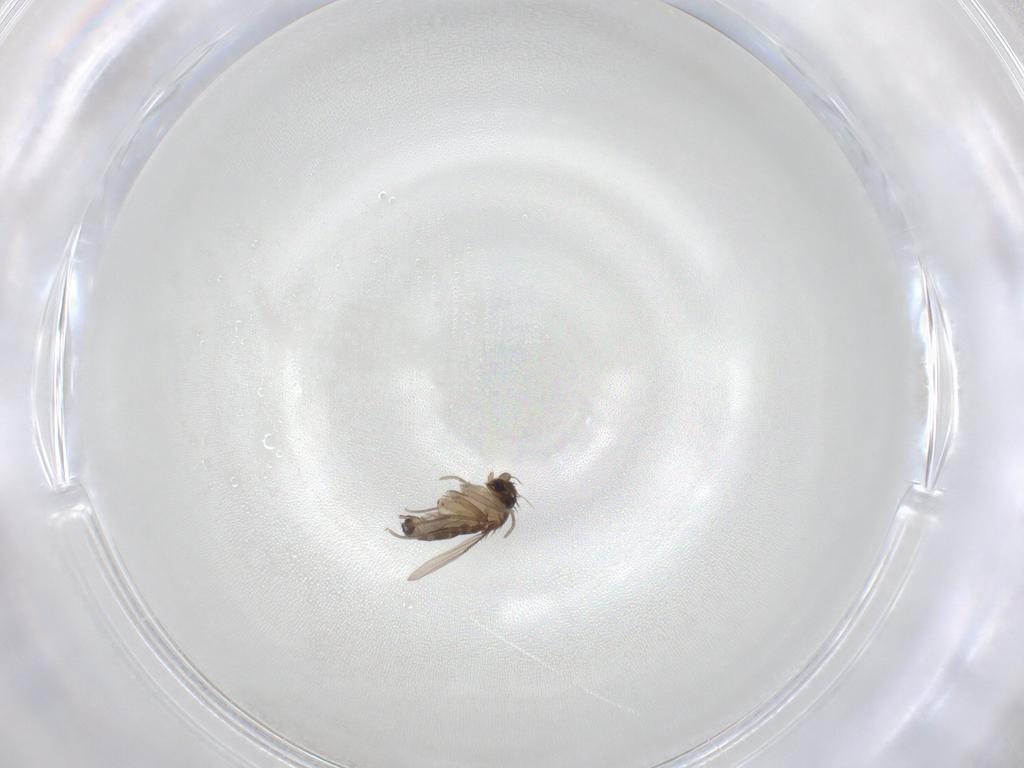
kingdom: Animalia
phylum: Arthropoda
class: Insecta
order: Diptera
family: Phoridae
